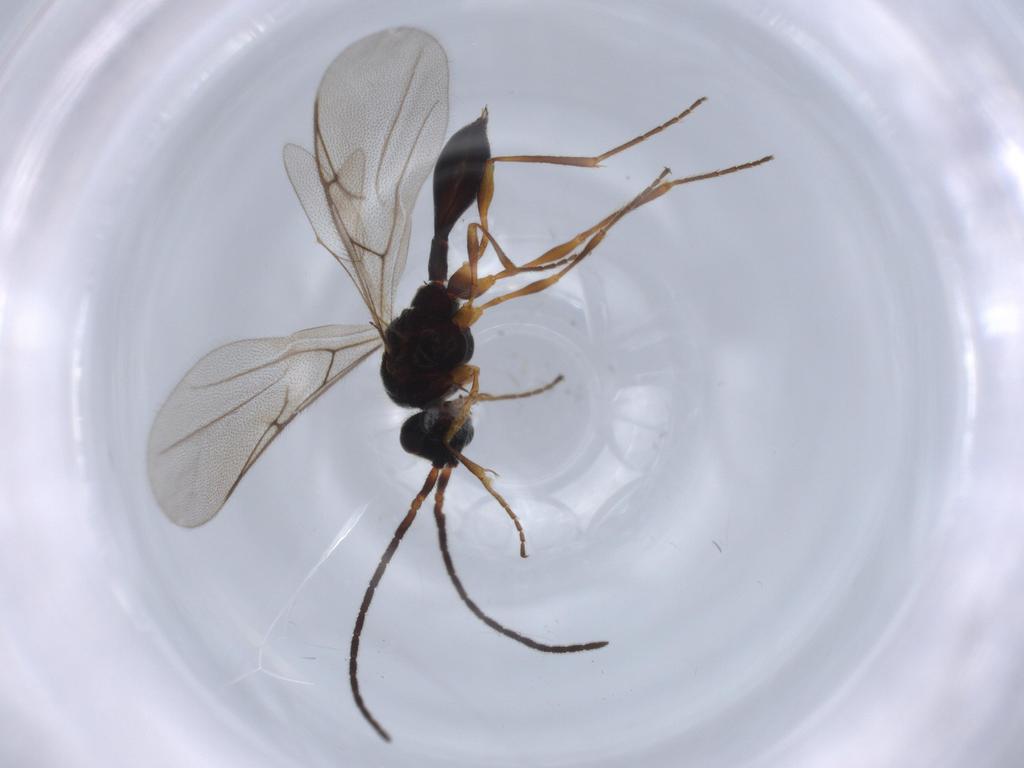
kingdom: Animalia
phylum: Arthropoda
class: Insecta
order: Hymenoptera
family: Diapriidae
